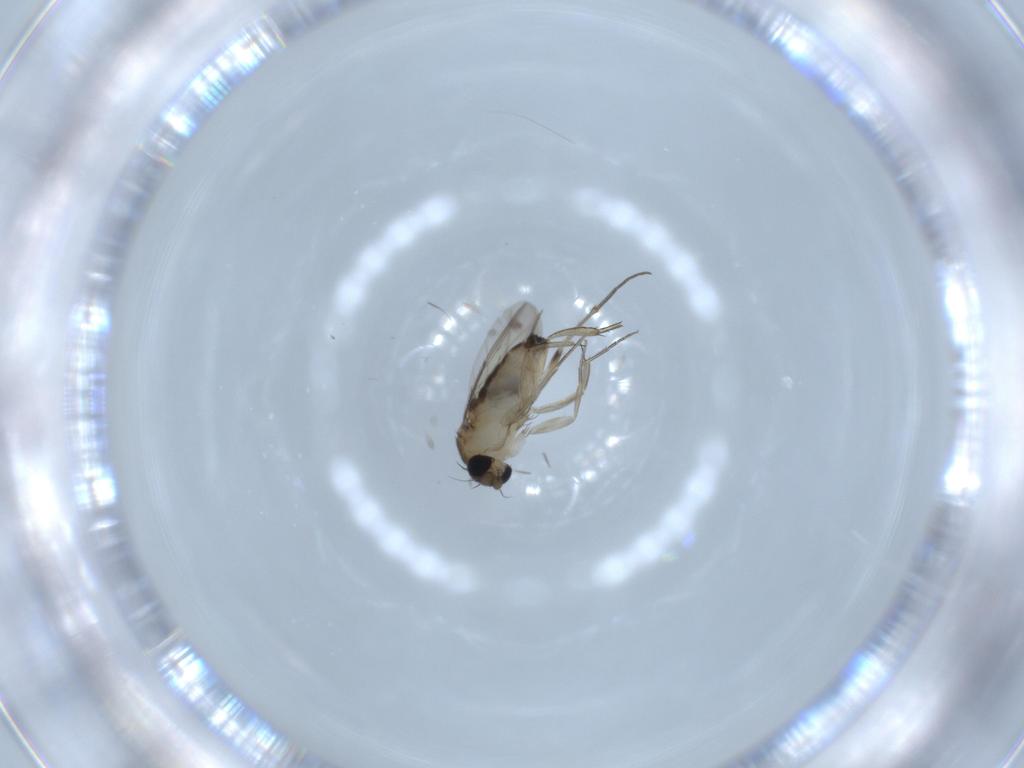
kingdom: Animalia
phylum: Arthropoda
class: Insecta
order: Diptera
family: Phoridae
